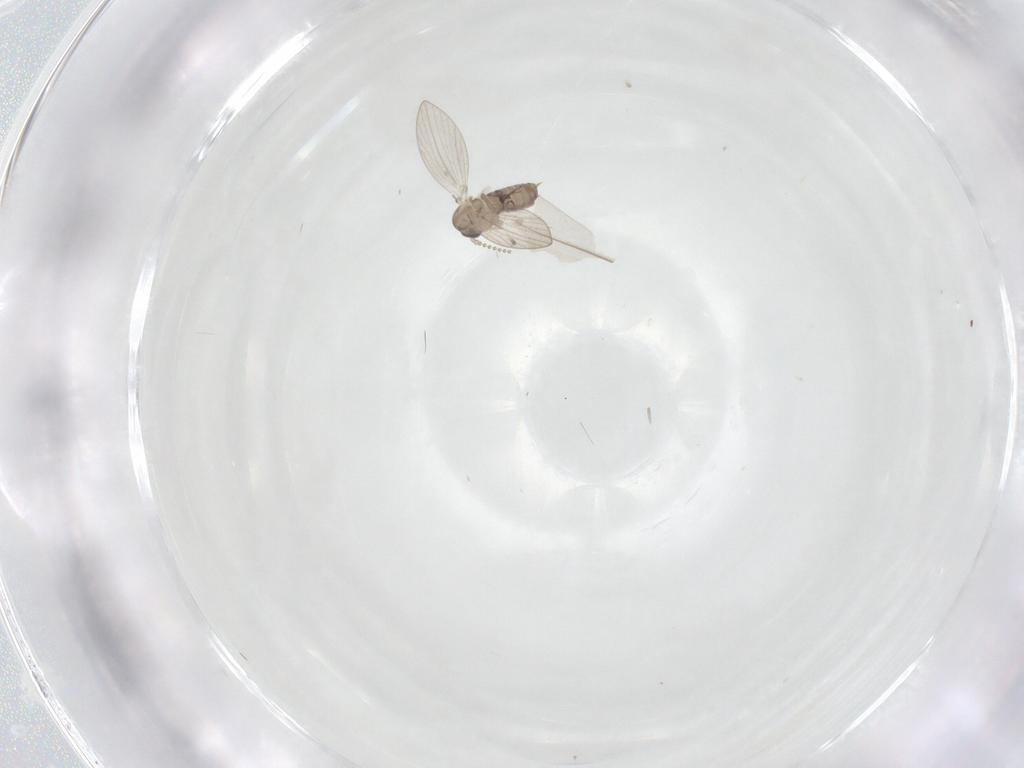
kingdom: Animalia
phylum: Arthropoda
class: Insecta
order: Diptera
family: Psychodidae
